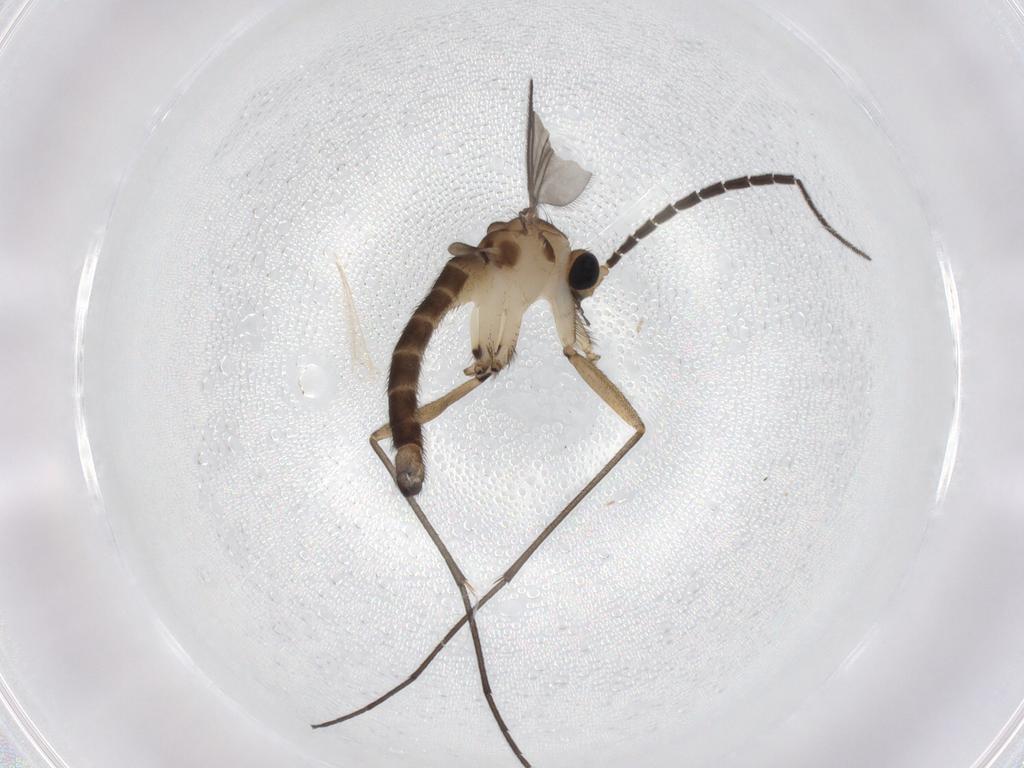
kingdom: Animalia
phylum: Arthropoda
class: Insecta
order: Diptera
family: Sciaridae
